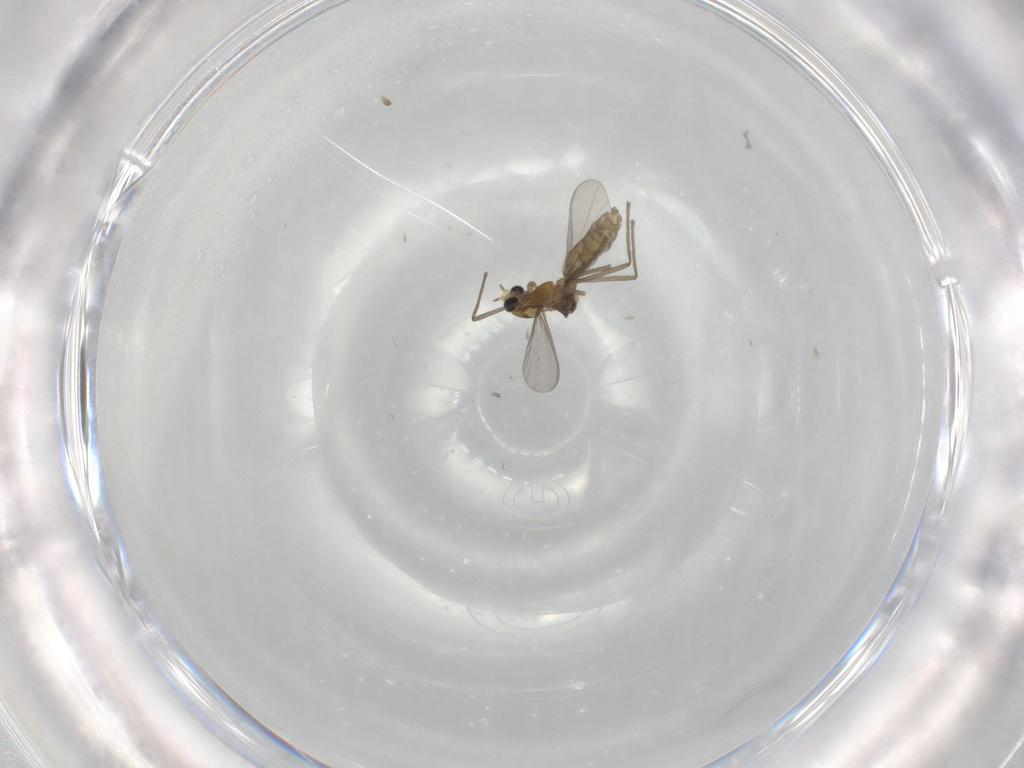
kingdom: Animalia
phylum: Arthropoda
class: Insecta
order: Diptera
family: Chironomidae
